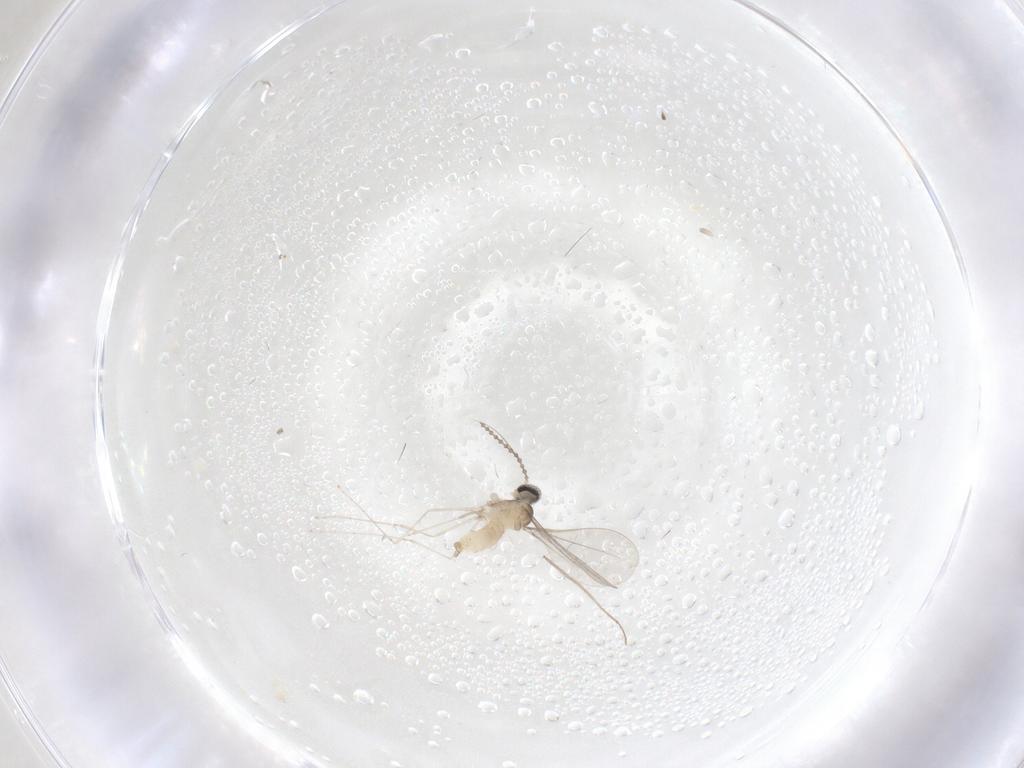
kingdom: Animalia
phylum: Arthropoda
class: Insecta
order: Diptera
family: Chironomidae
